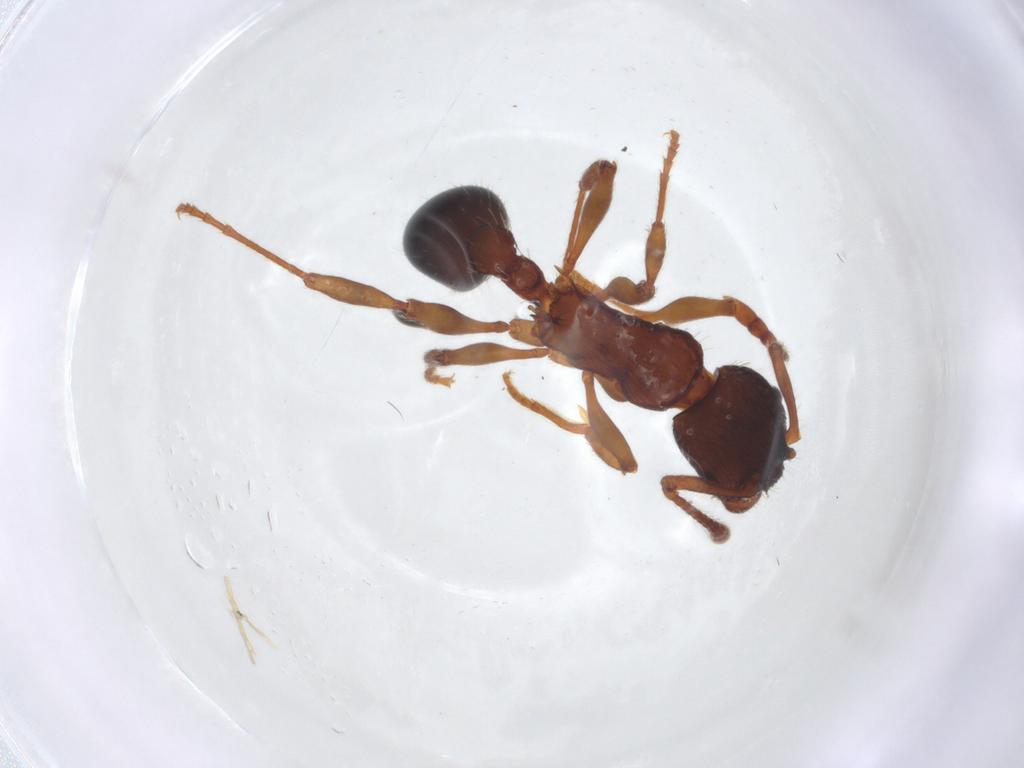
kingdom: Animalia
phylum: Arthropoda
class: Insecta
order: Hymenoptera
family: Formicidae
